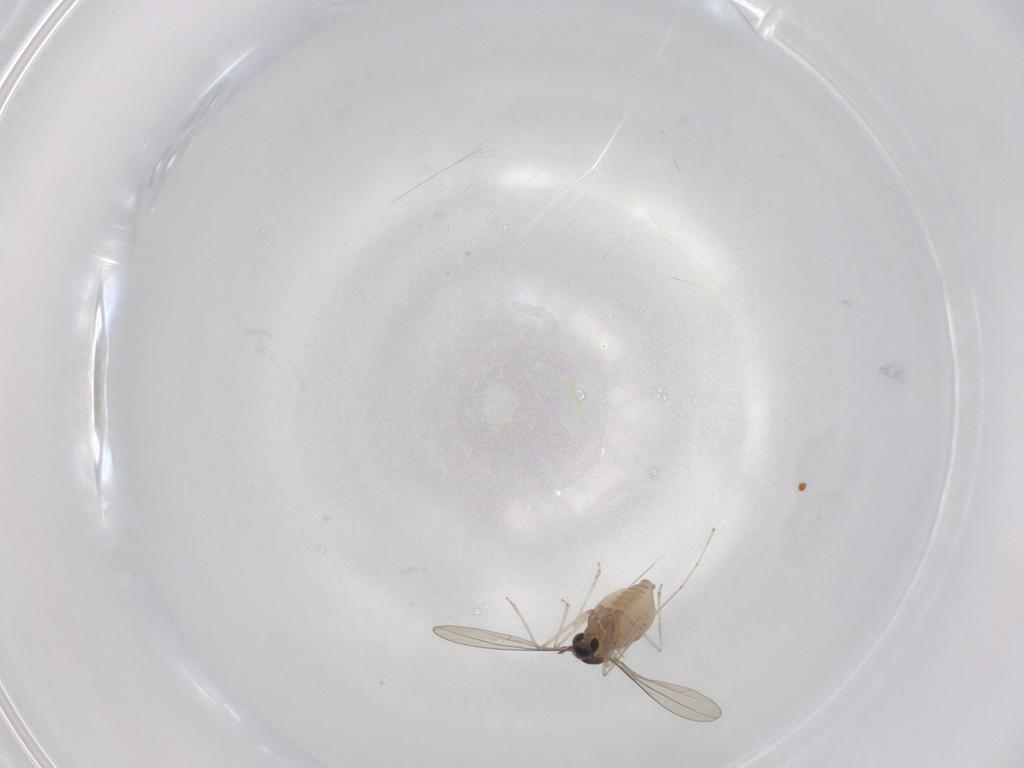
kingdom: Animalia
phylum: Arthropoda
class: Insecta
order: Diptera
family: Cecidomyiidae
